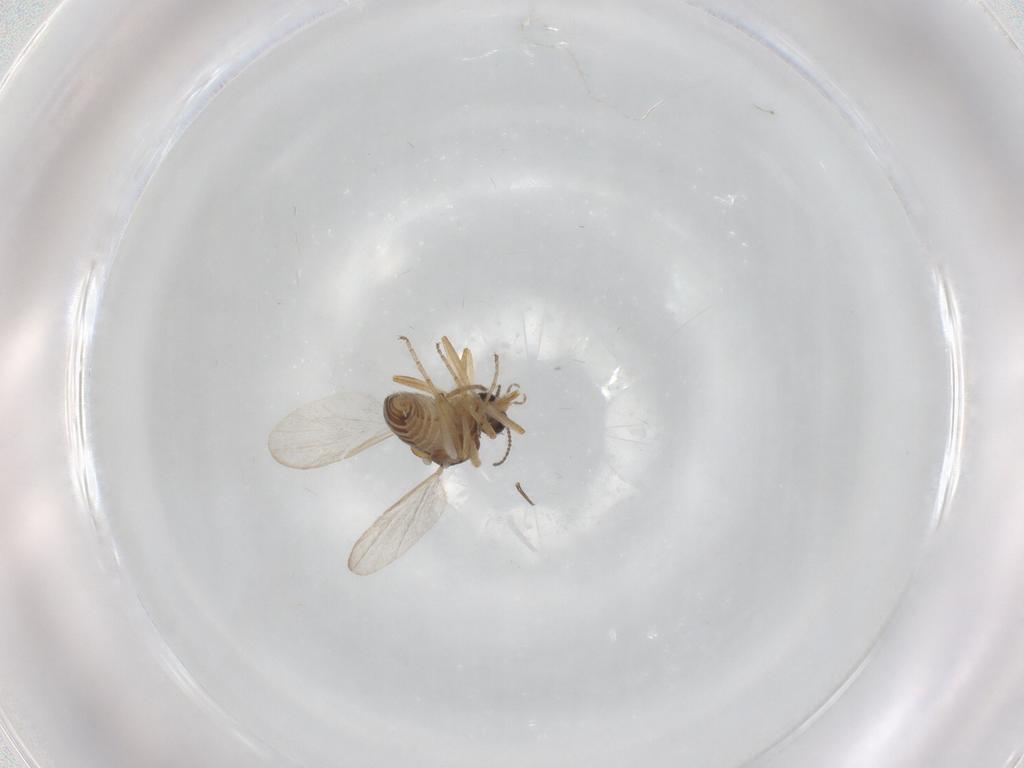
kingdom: Animalia
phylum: Arthropoda
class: Insecta
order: Diptera
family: Ceratopogonidae
